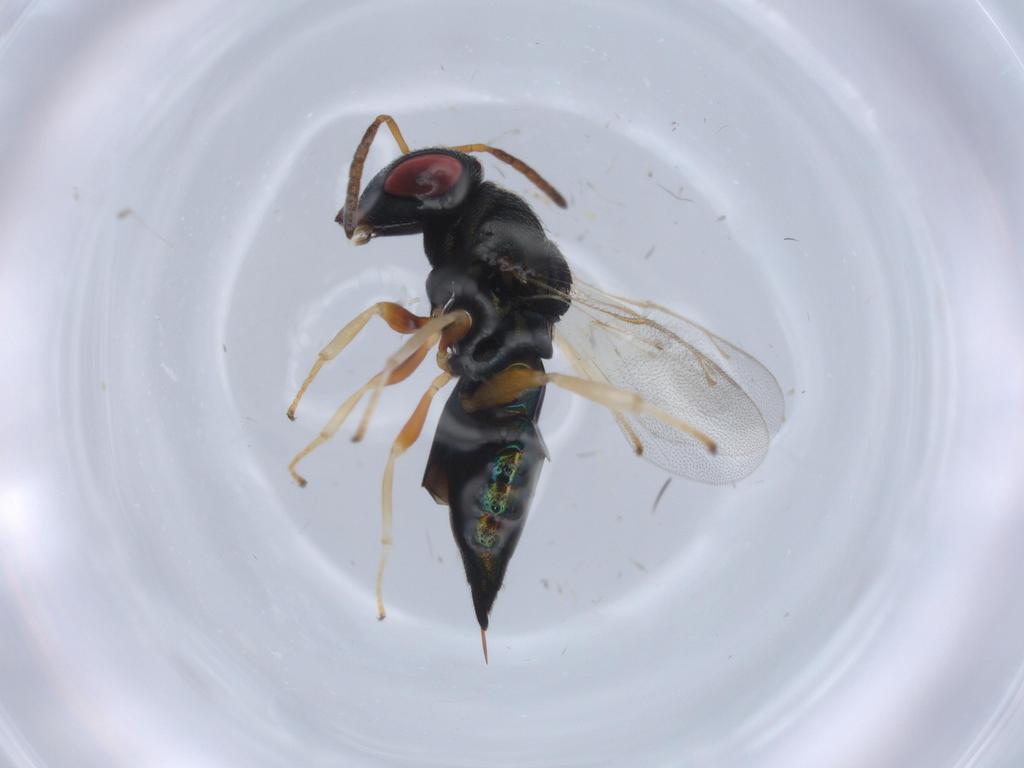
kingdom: Animalia
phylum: Arthropoda
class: Insecta
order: Hymenoptera
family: Pteromalidae
